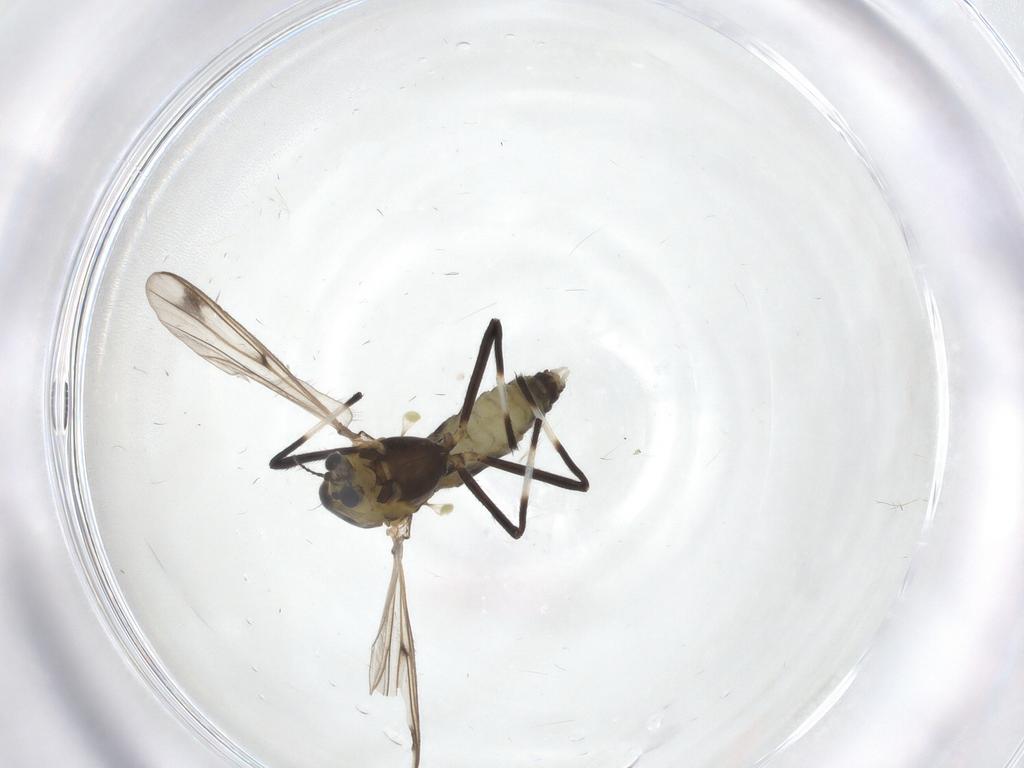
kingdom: Animalia
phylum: Arthropoda
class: Insecta
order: Diptera
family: Chironomidae
